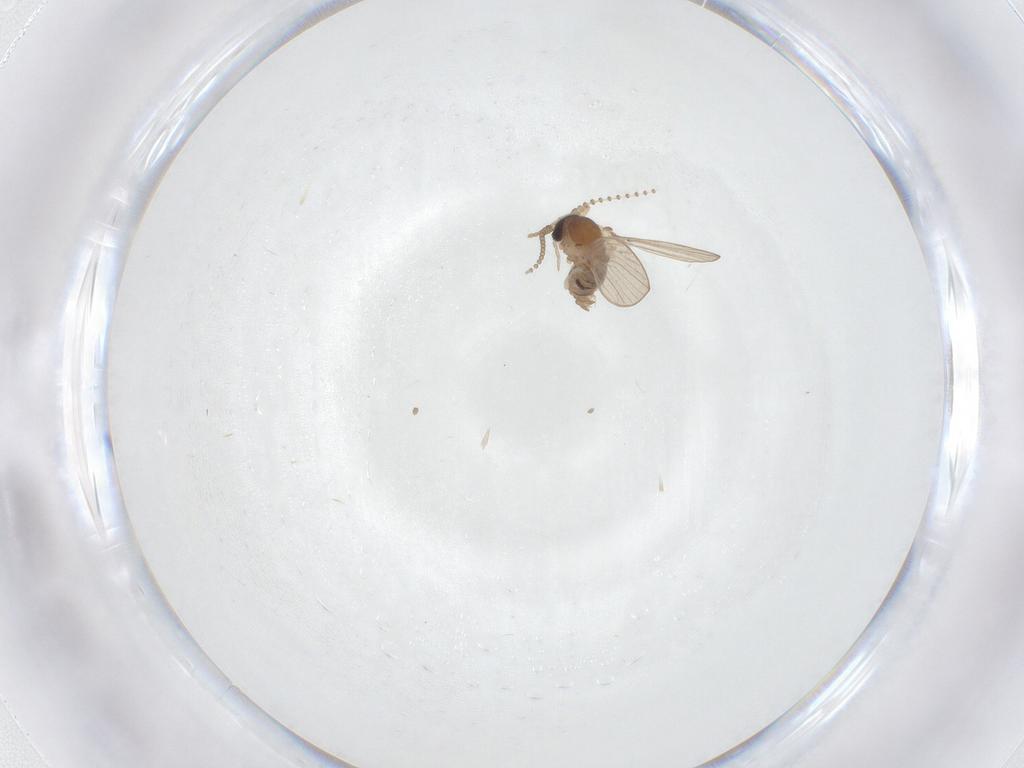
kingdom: Animalia
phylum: Arthropoda
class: Insecta
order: Diptera
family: Psychodidae
